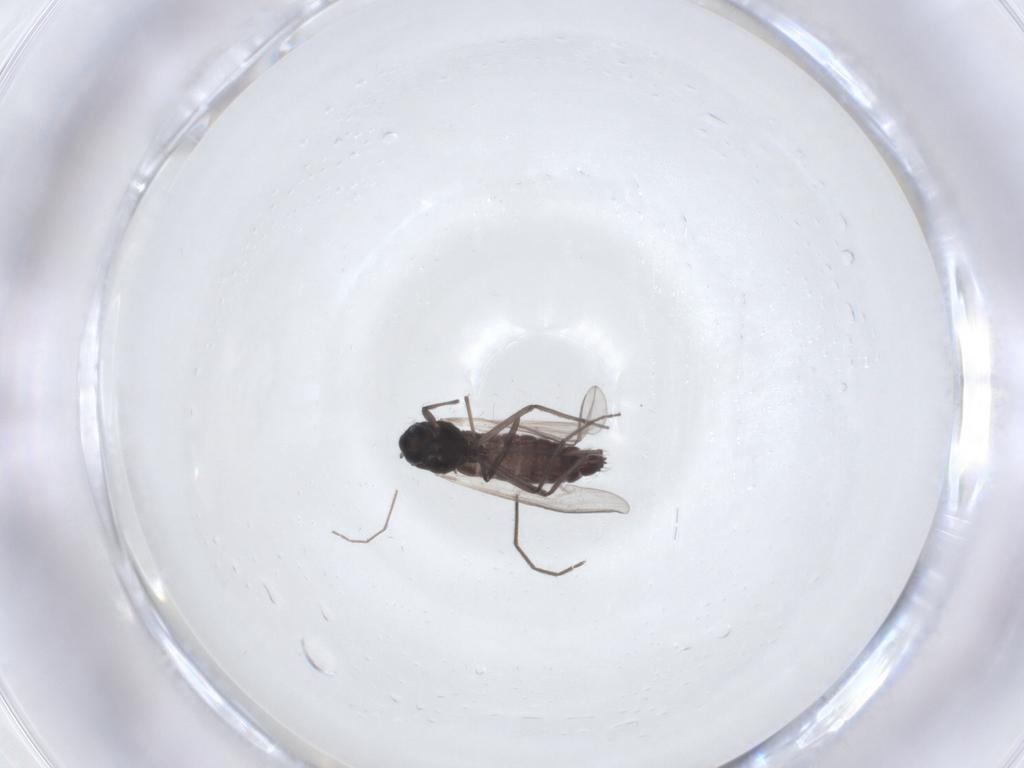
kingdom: Animalia
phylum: Arthropoda
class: Insecta
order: Diptera
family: Chironomidae
